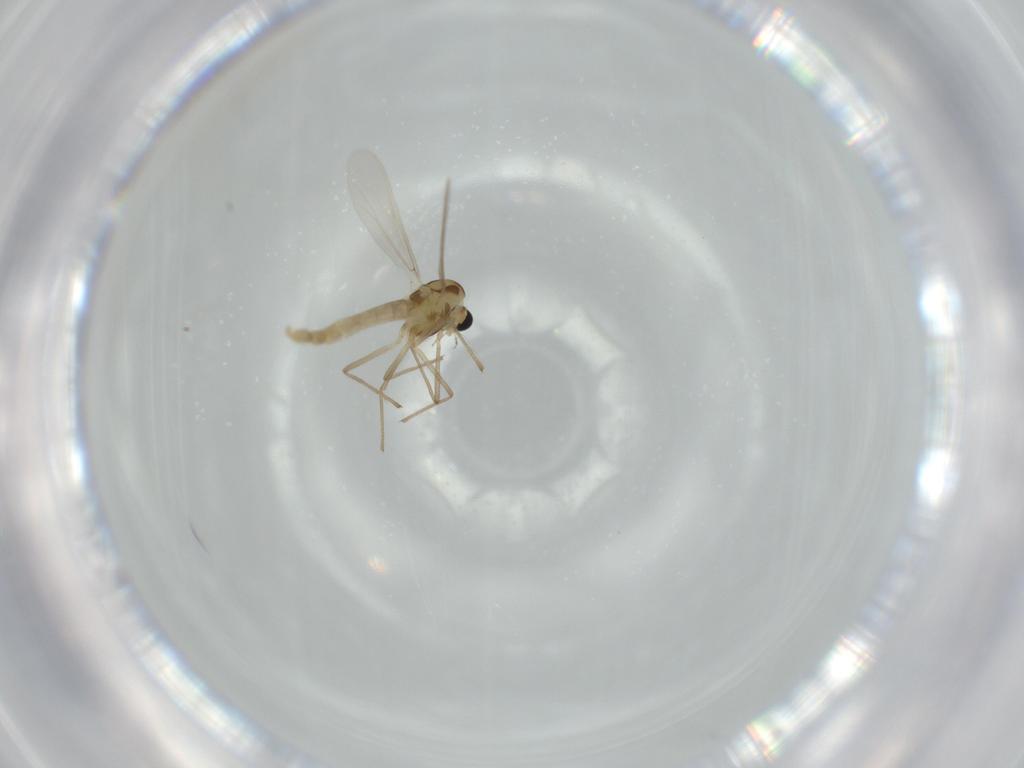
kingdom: Animalia
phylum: Arthropoda
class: Insecta
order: Diptera
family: Chironomidae
